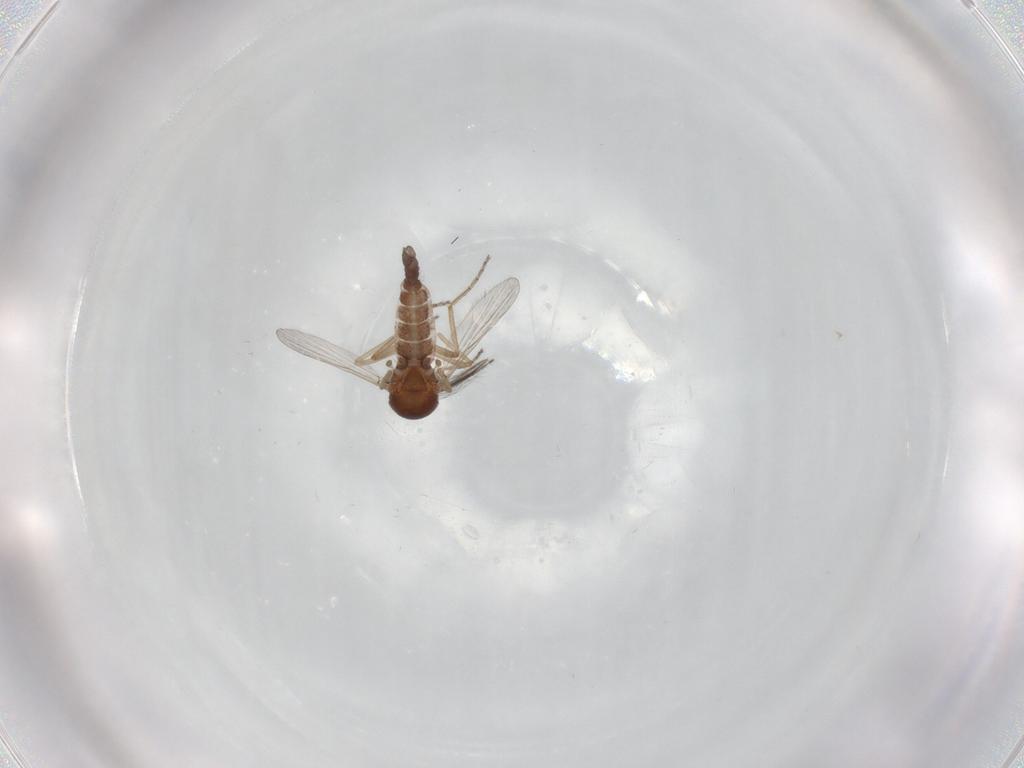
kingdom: Animalia
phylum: Arthropoda
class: Insecta
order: Diptera
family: Ceratopogonidae
